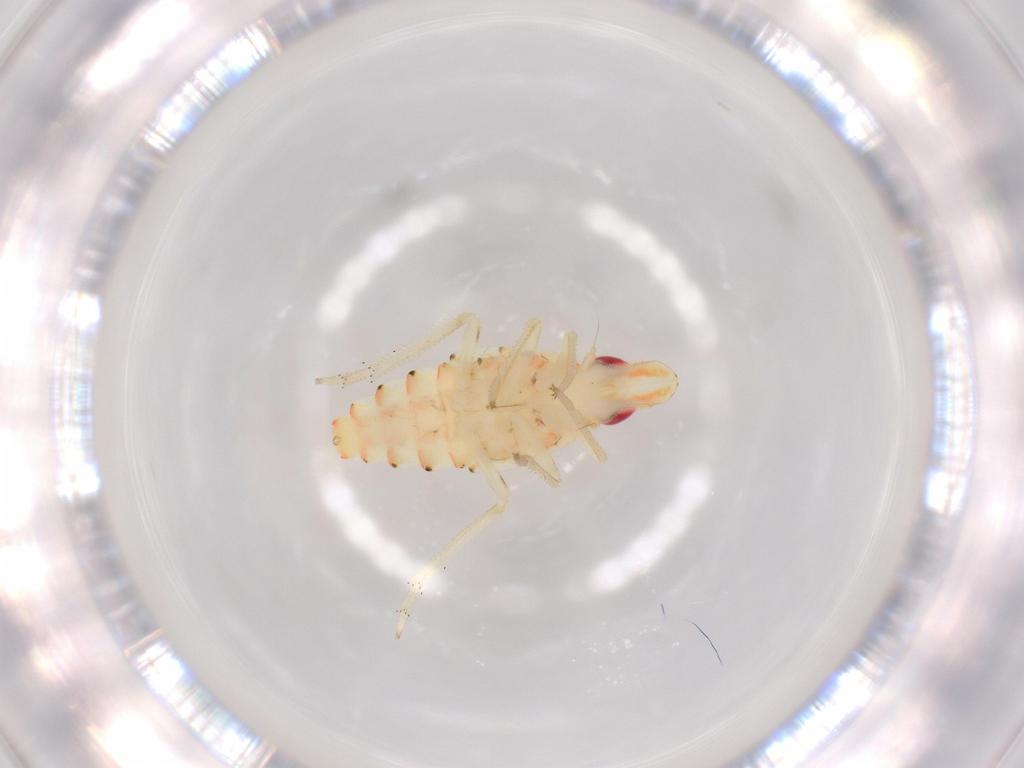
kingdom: Animalia
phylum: Arthropoda
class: Insecta
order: Hemiptera
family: Tropiduchidae
